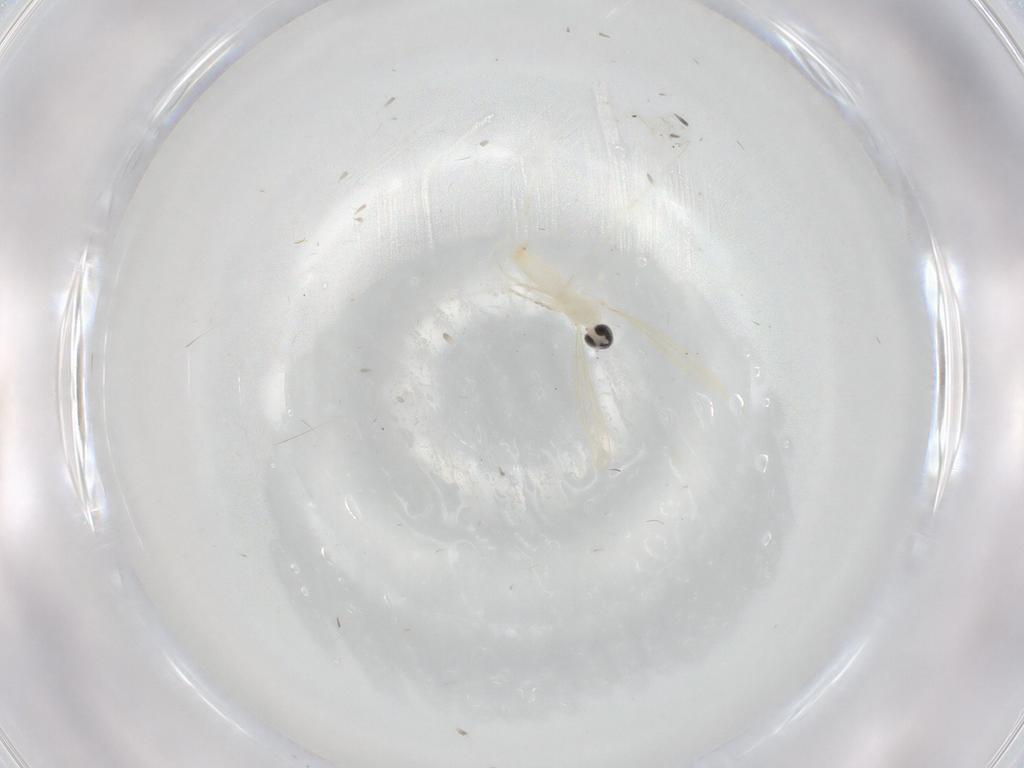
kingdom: Animalia
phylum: Arthropoda
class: Insecta
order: Diptera
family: Cecidomyiidae
